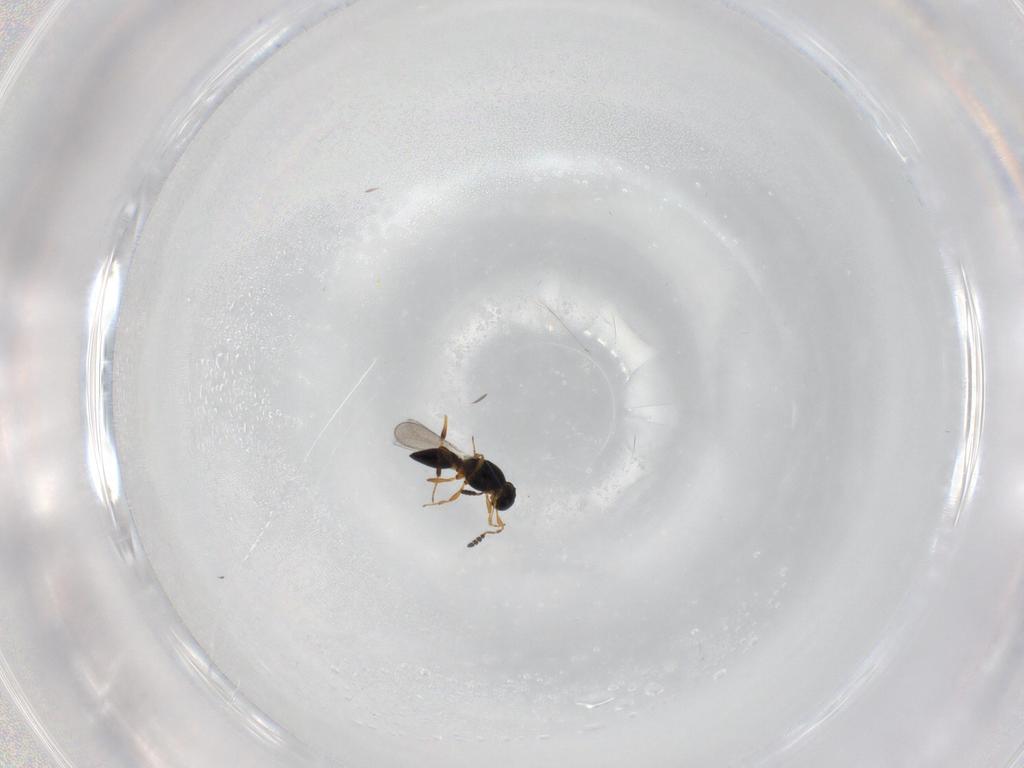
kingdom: Animalia
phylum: Arthropoda
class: Insecta
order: Hymenoptera
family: Platygastridae
